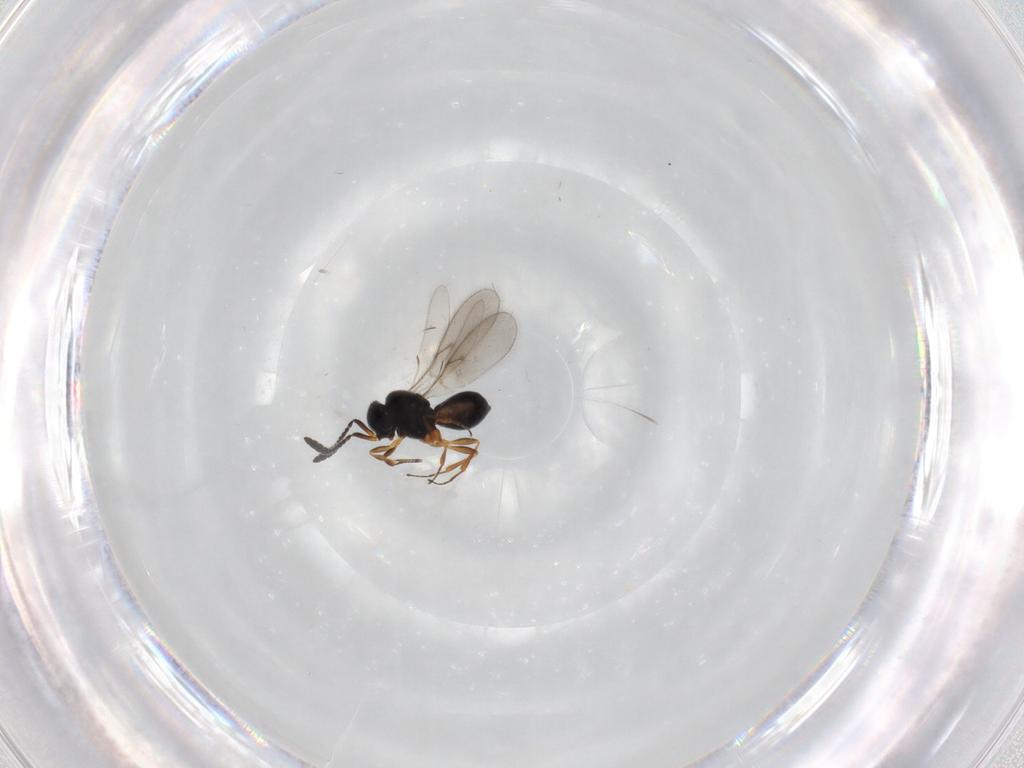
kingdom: Animalia
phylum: Arthropoda
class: Insecta
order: Hymenoptera
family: Scelionidae
